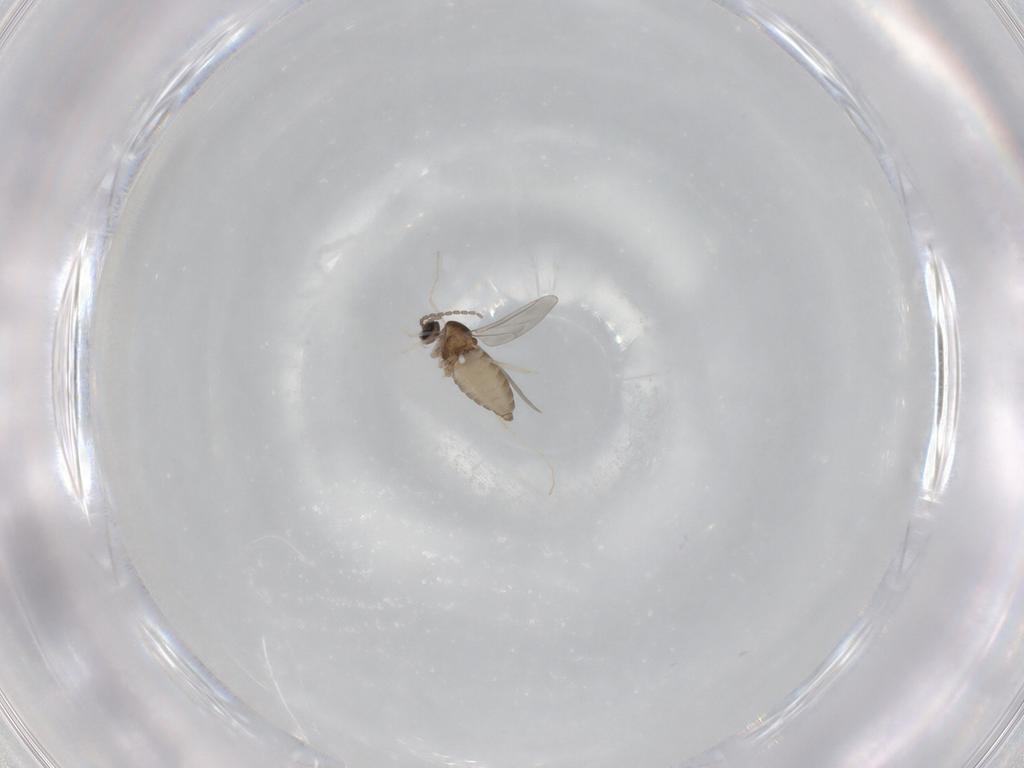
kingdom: Animalia
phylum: Arthropoda
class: Insecta
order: Diptera
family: Cecidomyiidae
